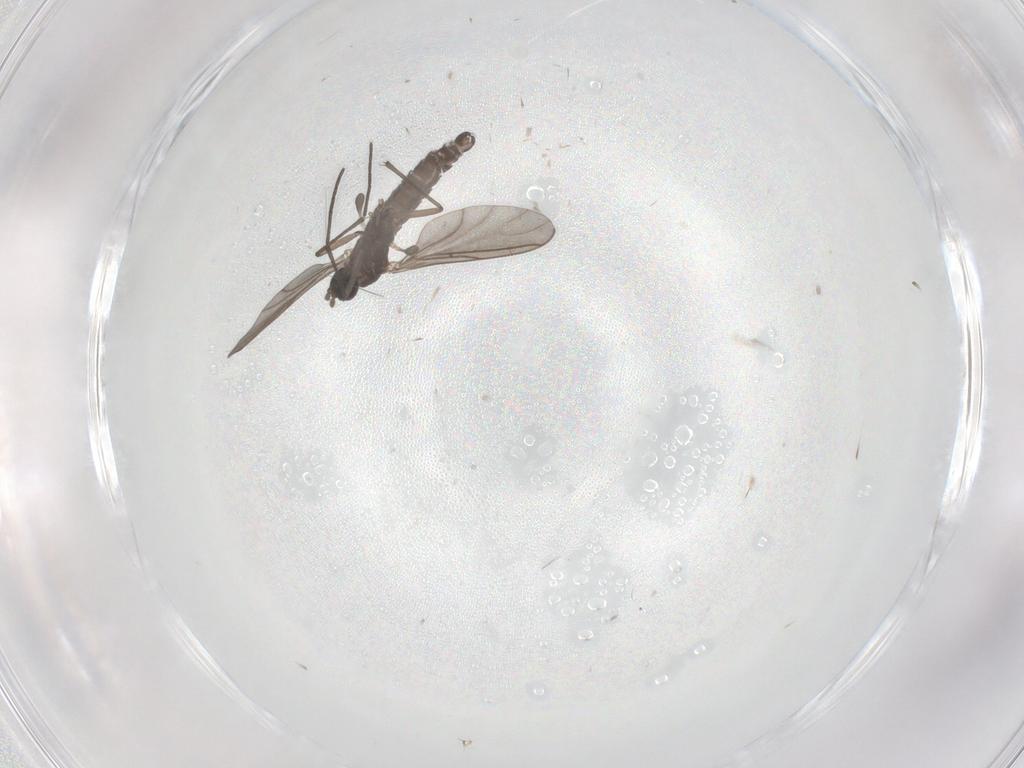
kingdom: Animalia
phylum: Arthropoda
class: Insecta
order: Diptera
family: Sciaridae
